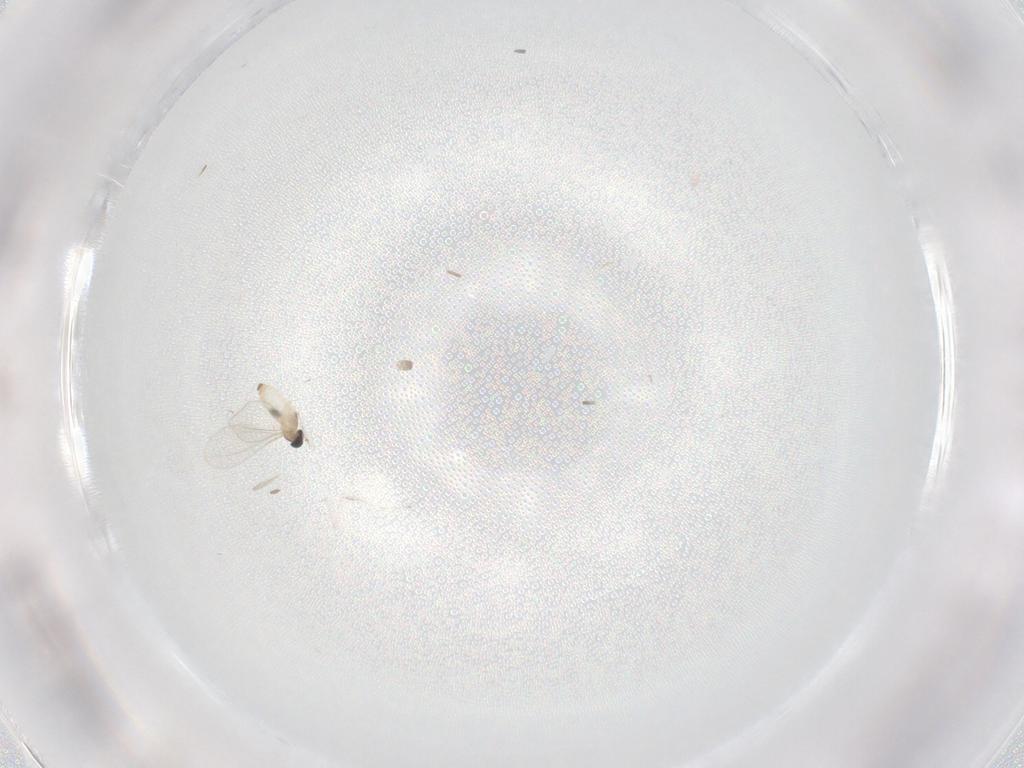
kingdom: Animalia
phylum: Arthropoda
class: Insecta
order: Diptera
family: Cecidomyiidae
